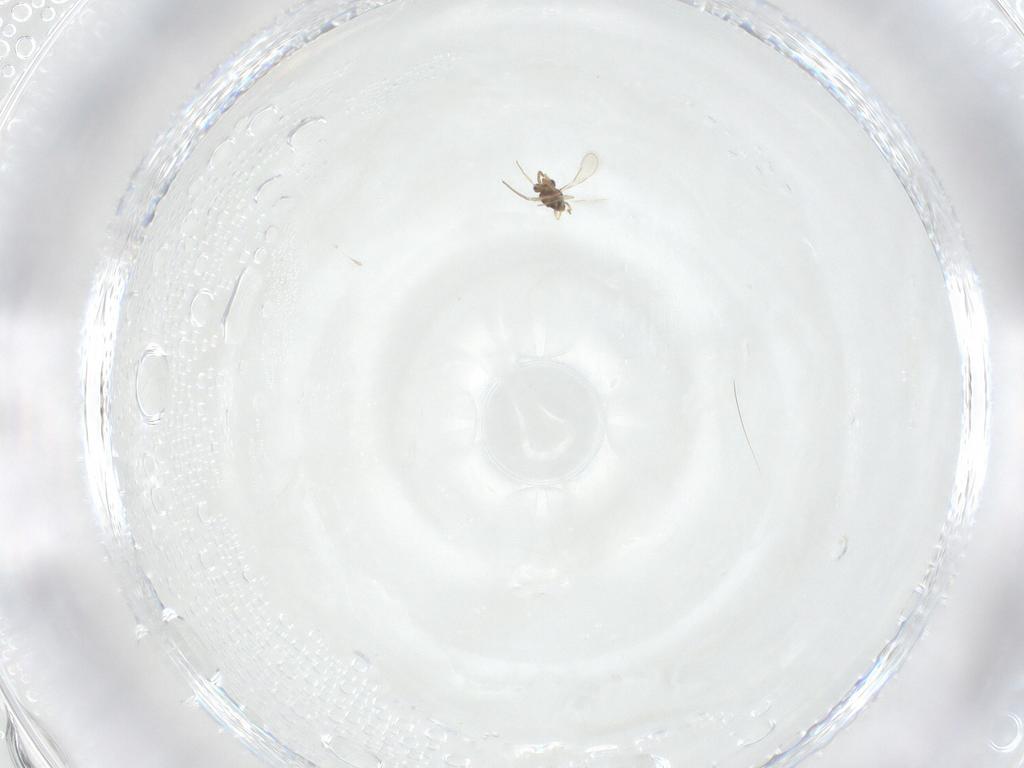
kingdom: Animalia
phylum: Arthropoda
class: Insecta
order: Hymenoptera
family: Aphelinidae
